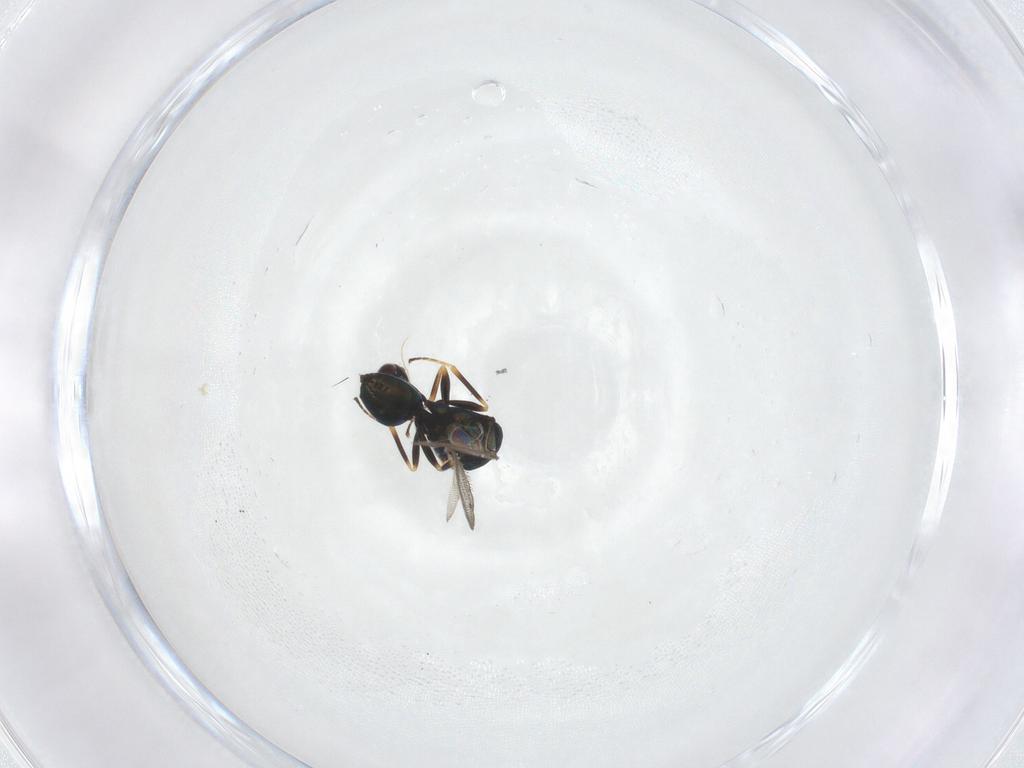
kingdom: Animalia
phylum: Arthropoda
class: Insecta
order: Hymenoptera
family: Pteromalidae
